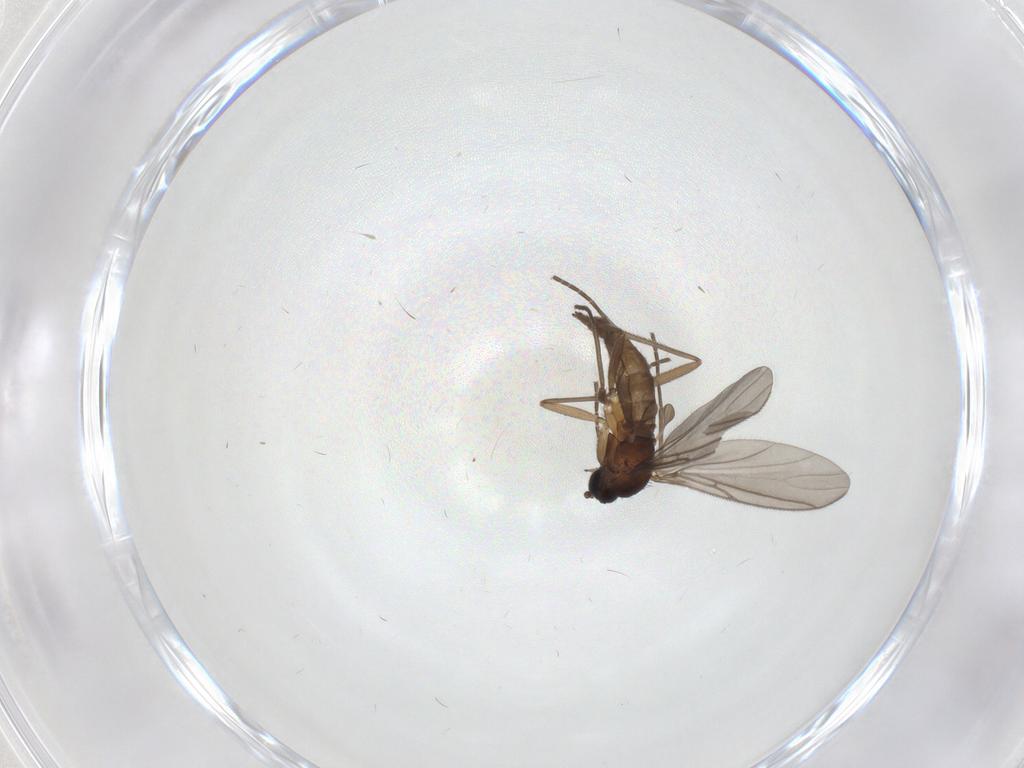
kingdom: Animalia
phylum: Arthropoda
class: Insecta
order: Diptera
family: Sciaridae
